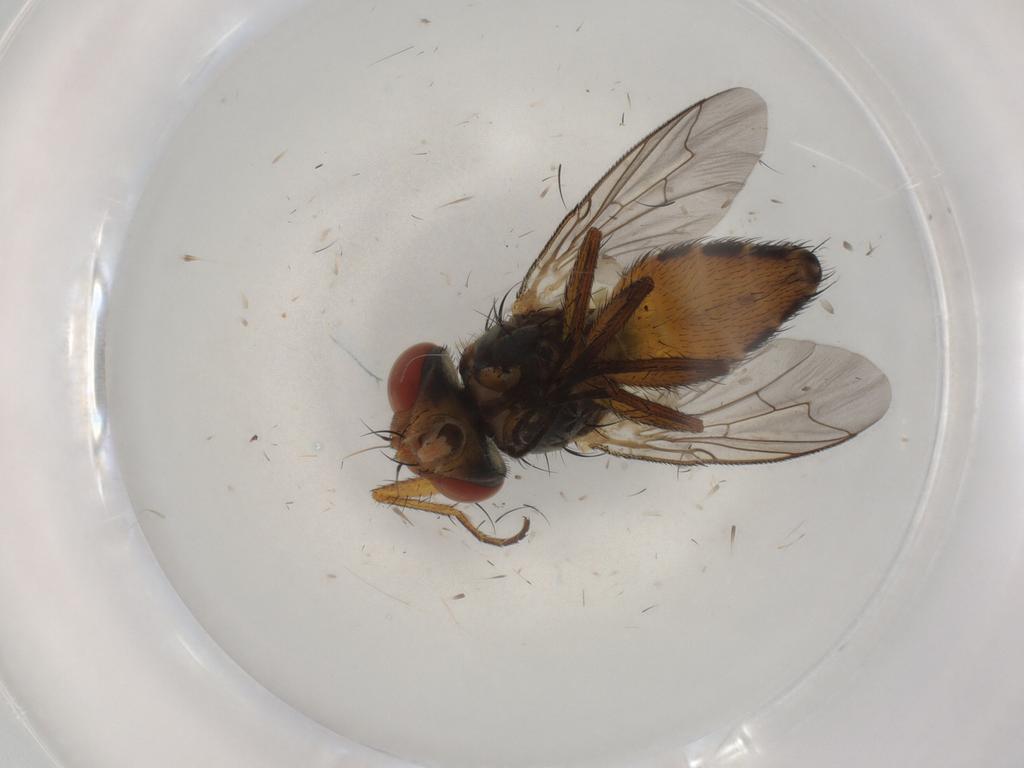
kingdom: Animalia
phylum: Arthropoda
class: Insecta
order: Diptera
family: Sarcophagidae
